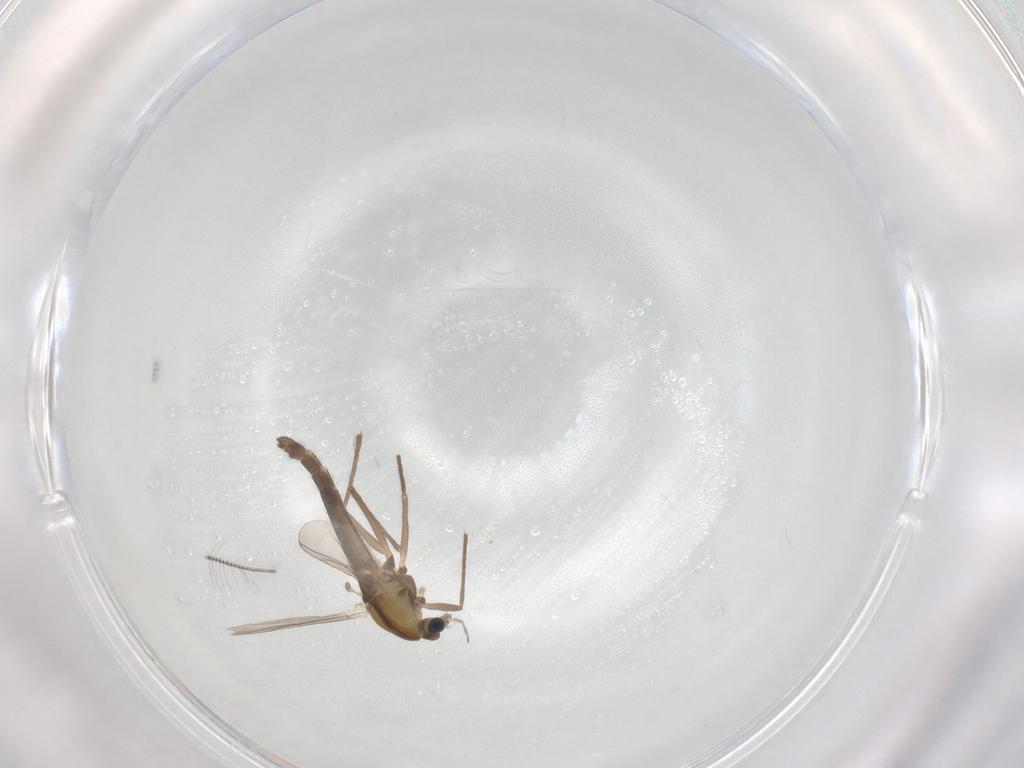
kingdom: Animalia
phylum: Arthropoda
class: Insecta
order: Diptera
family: Chironomidae
